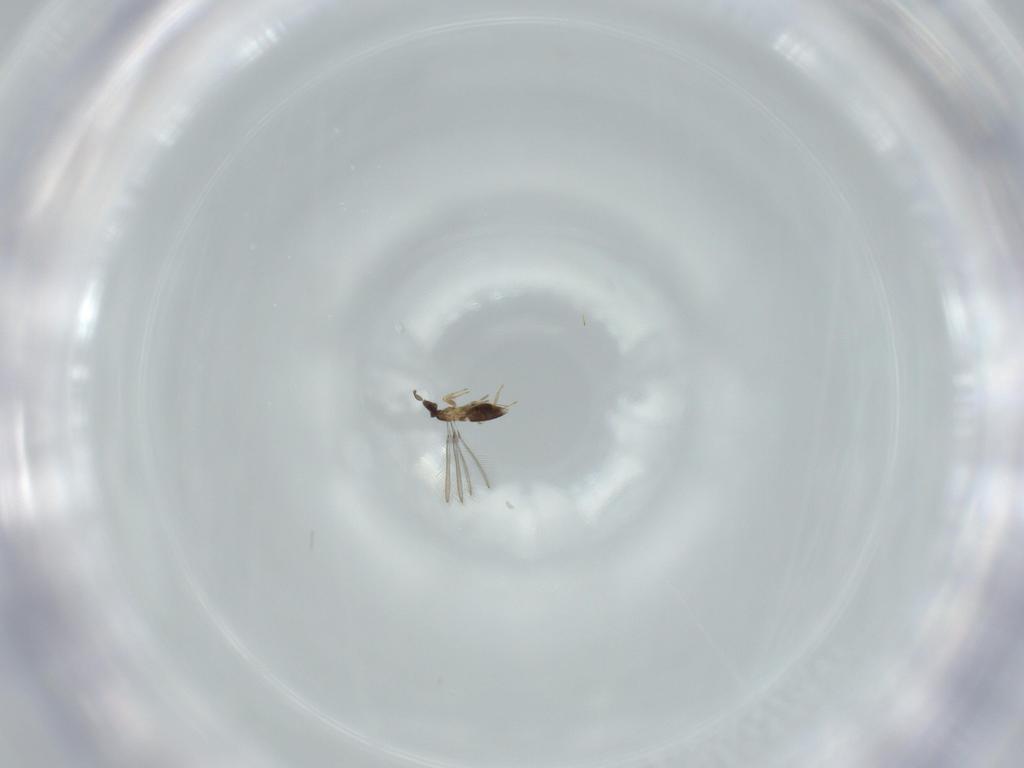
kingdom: Animalia
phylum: Arthropoda
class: Insecta
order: Hymenoptera
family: Mymaridae
